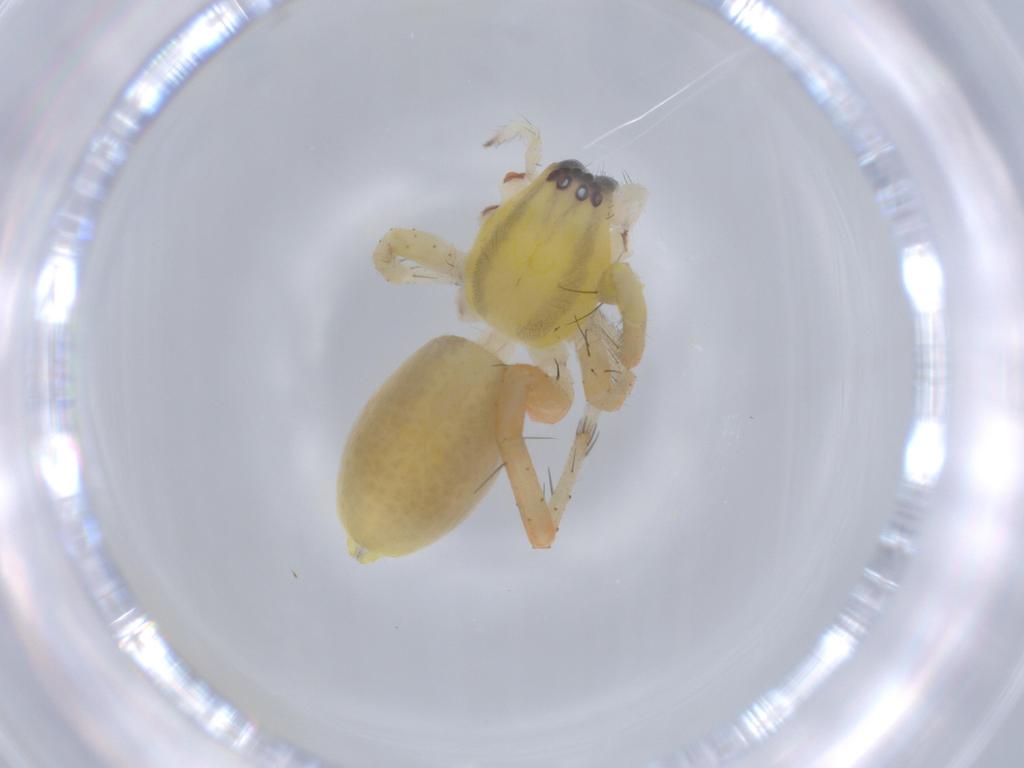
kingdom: Animalia
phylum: Arthropoda
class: Arachnida
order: Araneae
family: Anyphaenidae
